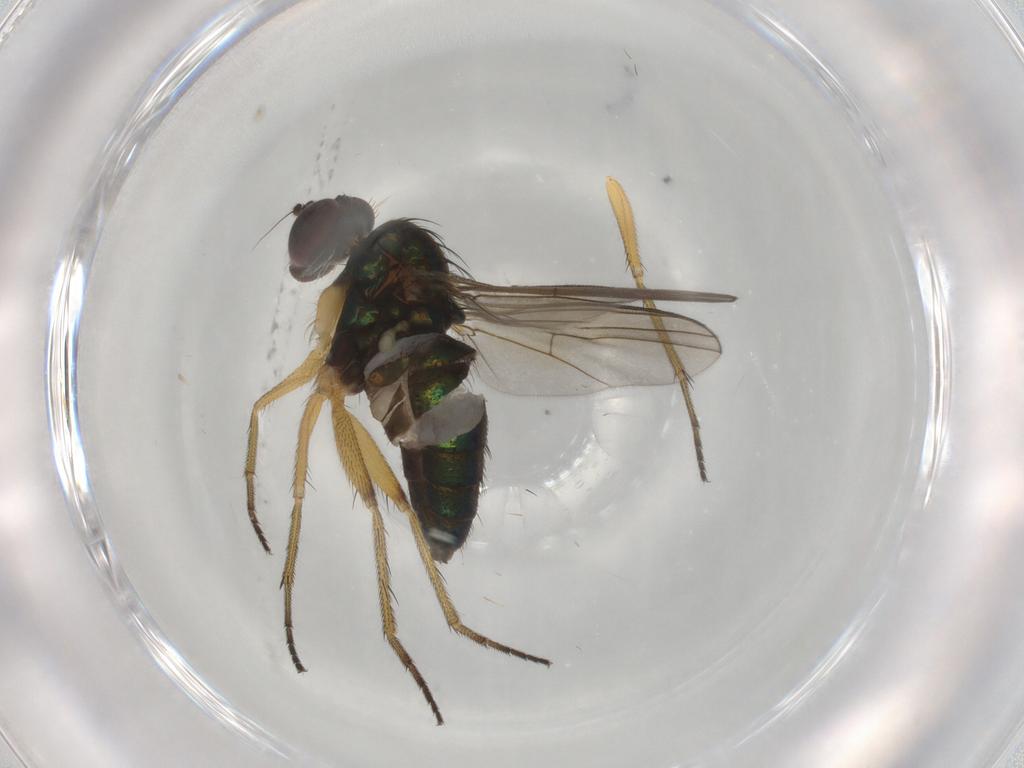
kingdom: Animalia
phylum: Arthropoda
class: Insecta
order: Diptera
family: Dolichopodidae
